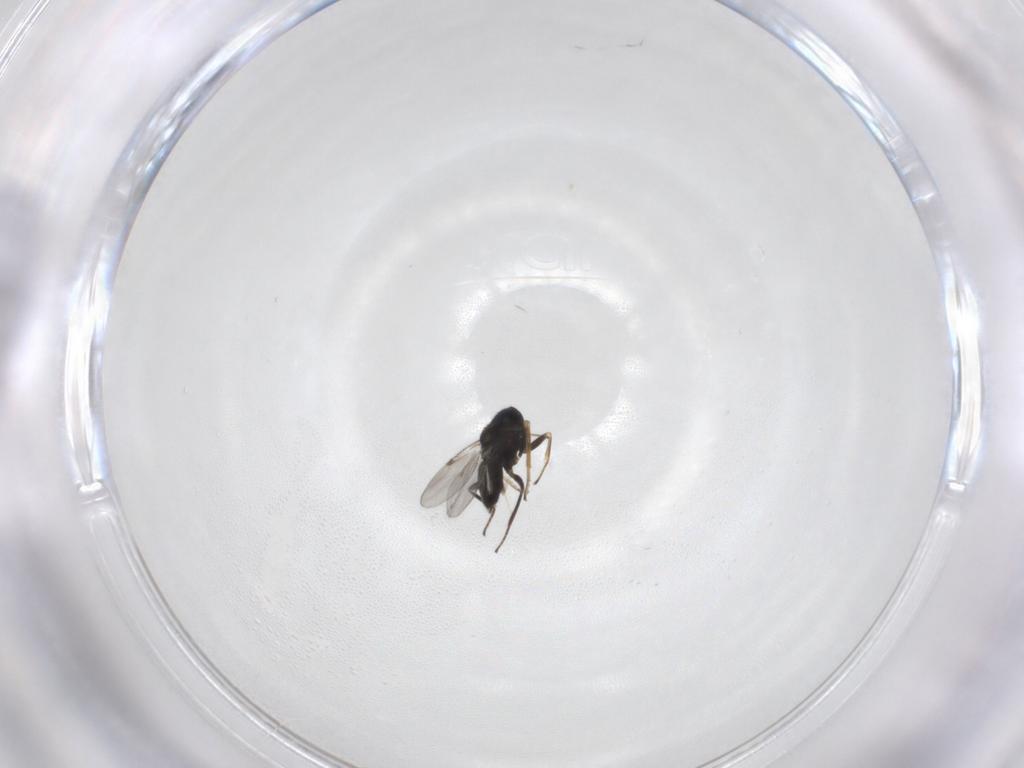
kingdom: Animalia
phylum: Arthropoda
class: Insecta
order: Hymenoptera
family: Encyrtidae
